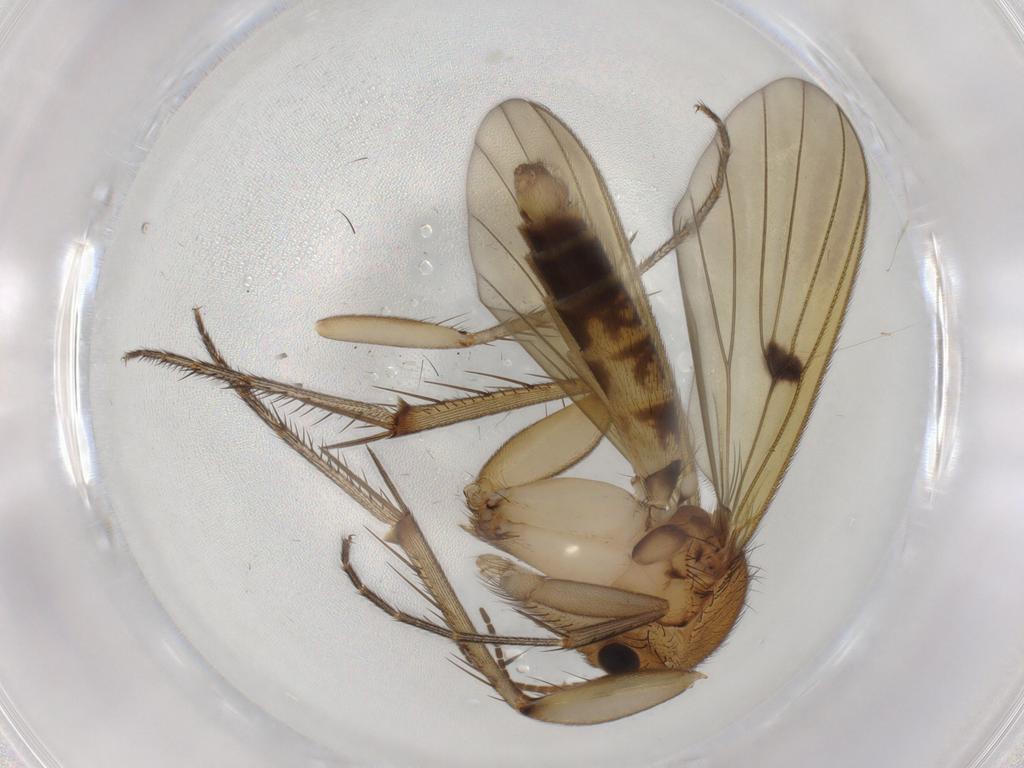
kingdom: Animalia
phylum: Arthropoda
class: Insecta
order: Diptera
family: Mycetophilidae
